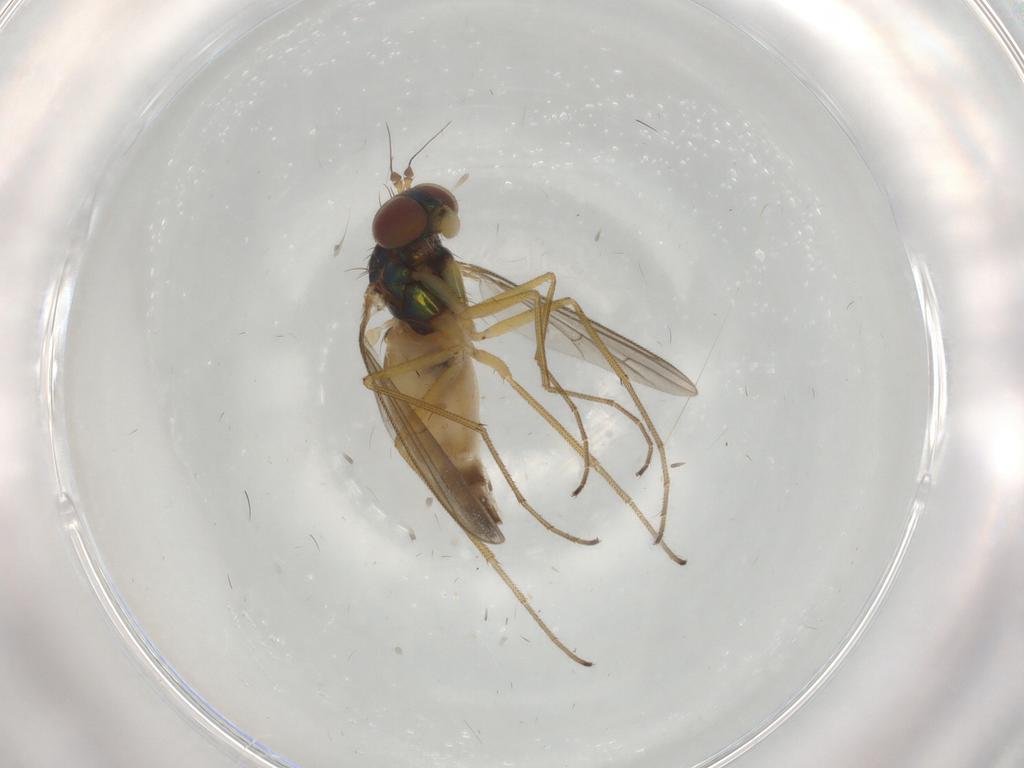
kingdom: Animalia
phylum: Arthropoda
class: Insecta
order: Diptera
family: Dolichopodidae
